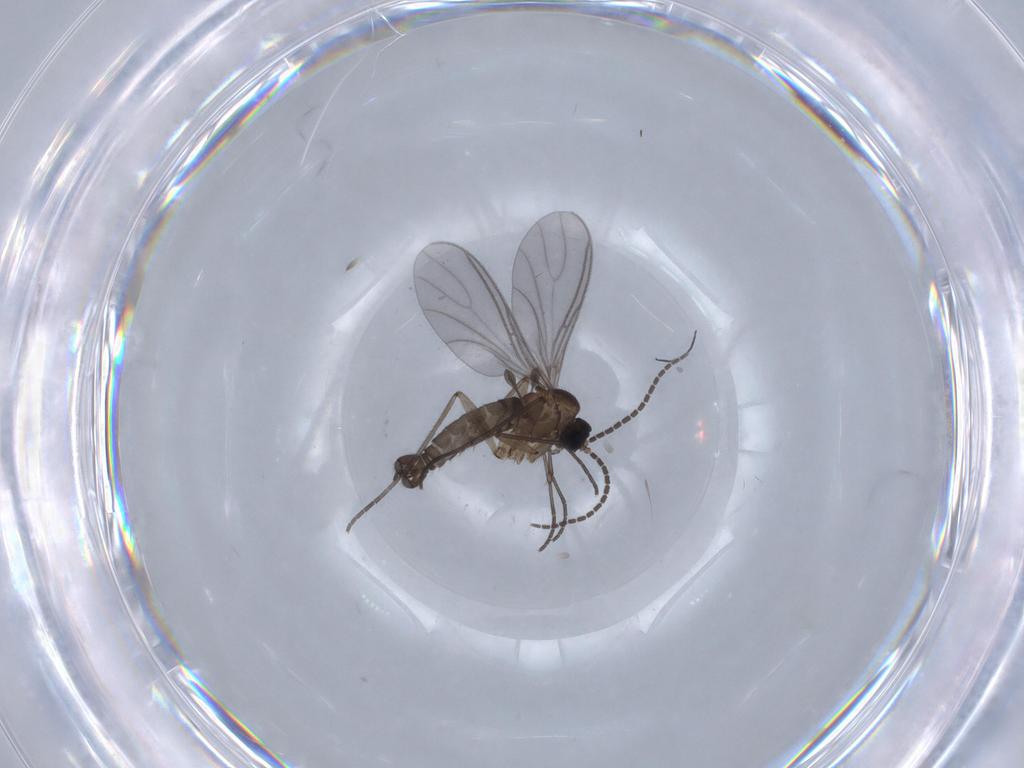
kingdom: Animalia
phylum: Arthropoda
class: Insecta
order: Diptera
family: Sciaridae
